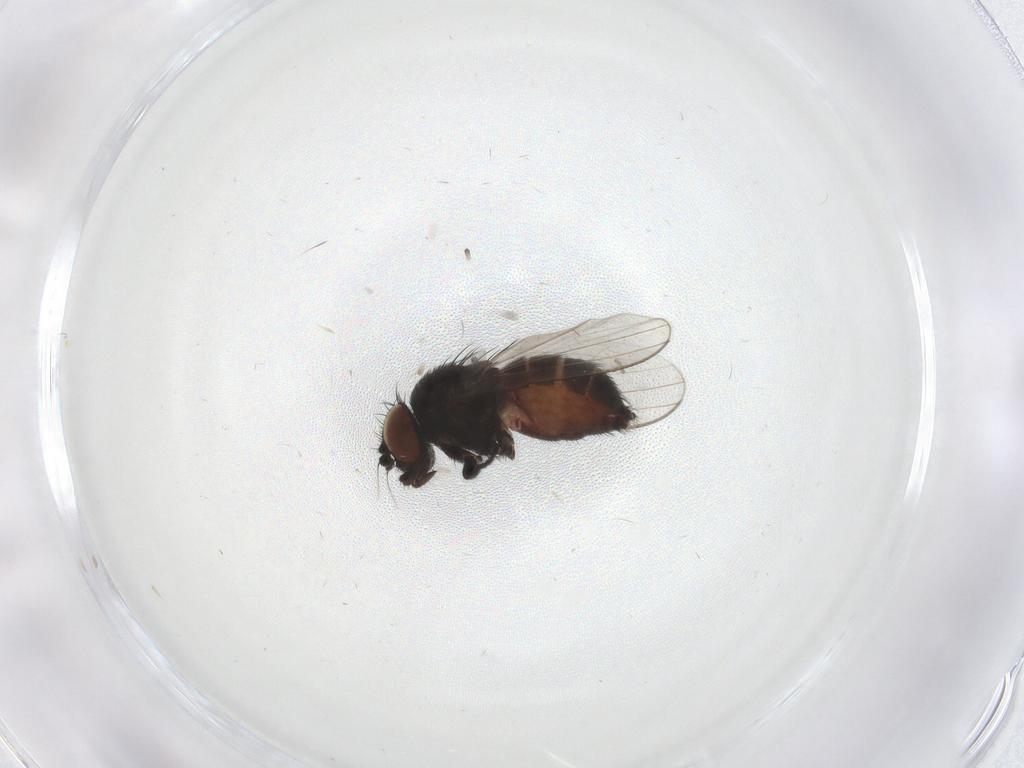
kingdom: Animalia
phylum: Arthropoda
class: Insecta
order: Diptera
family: Milichiidae
